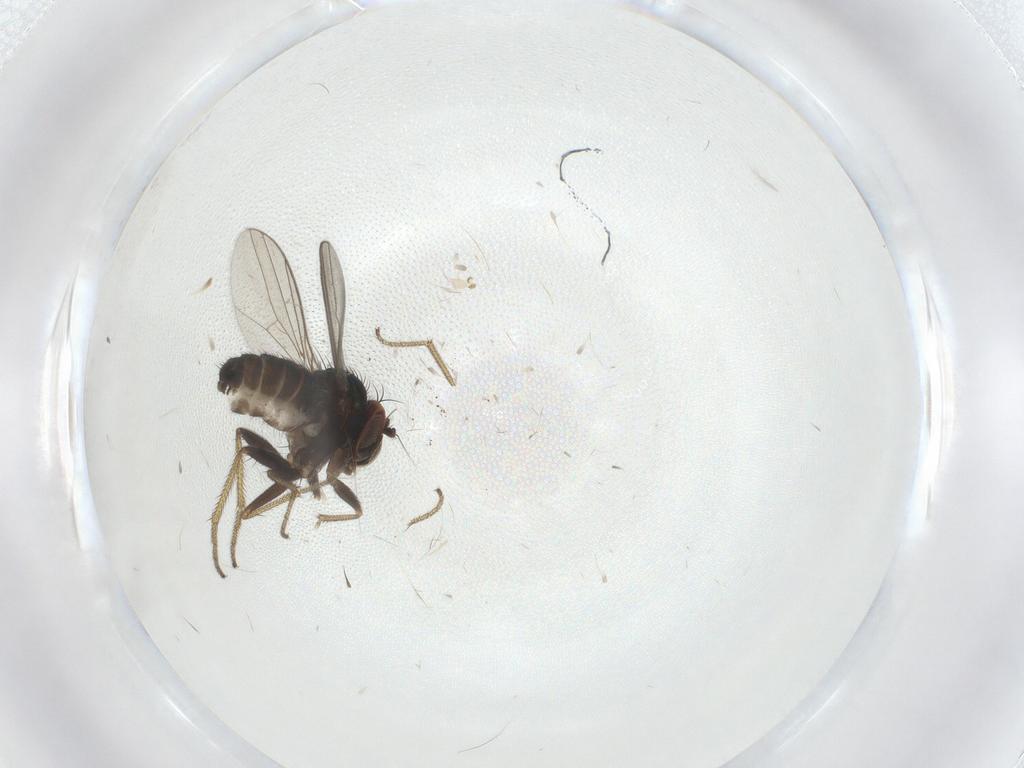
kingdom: Animalia
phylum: Arthropoda
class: Insecta
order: Diptera
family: Dolichopodidae
